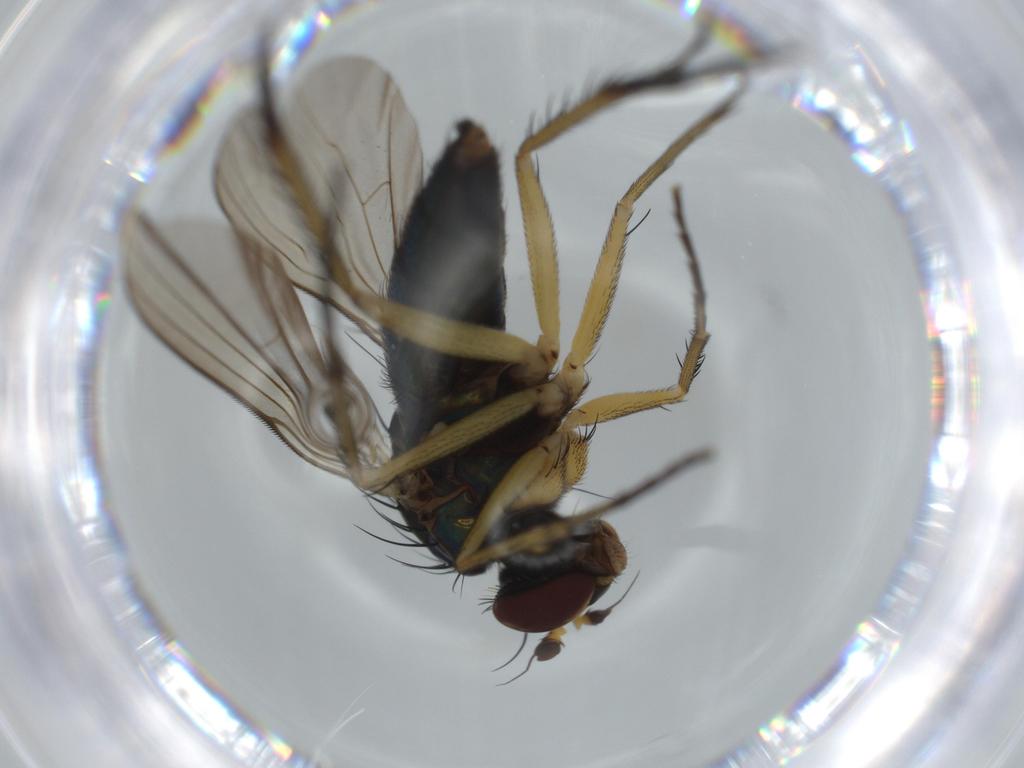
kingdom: Animalia
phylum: Arthropoda
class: Insecta
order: Diptera
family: Dolichopodidae
